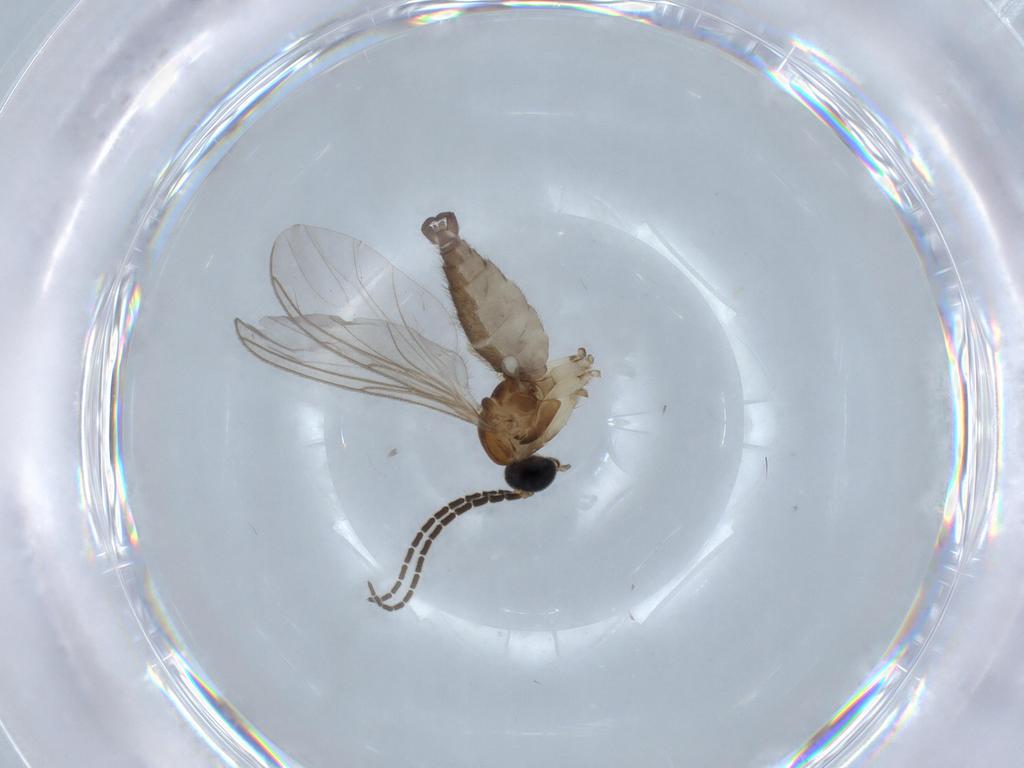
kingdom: Animalia
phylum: Arthropoda
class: Insecta
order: Diptera
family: Sciaridae
